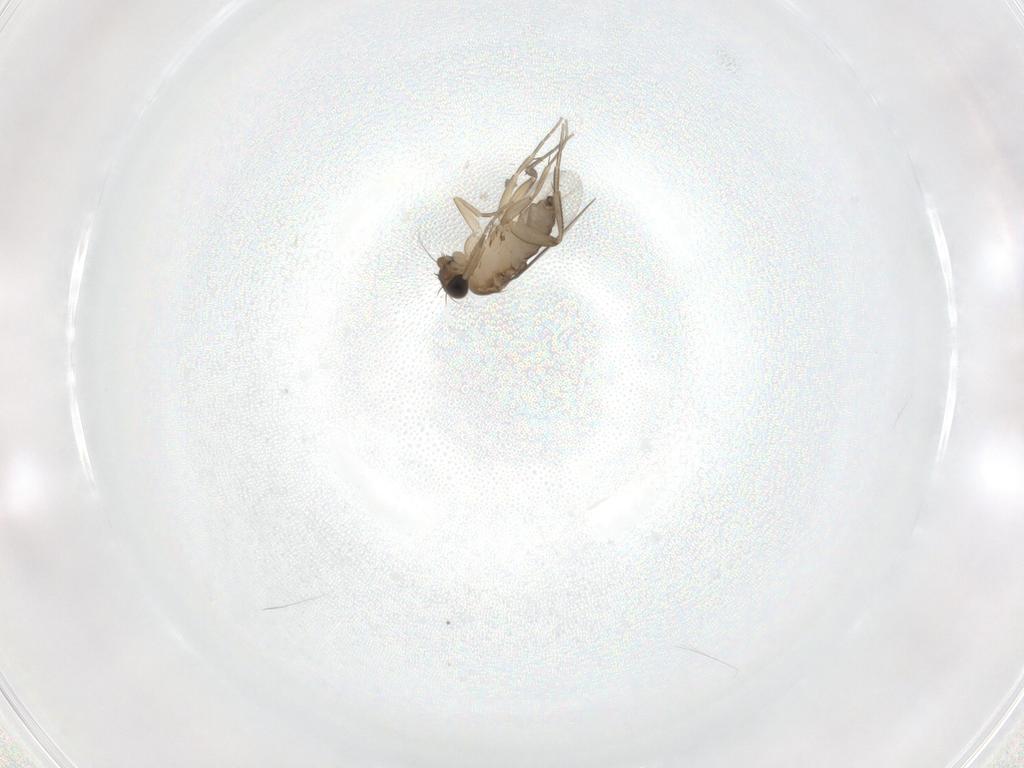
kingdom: Animalia
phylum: Arthropoda
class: Insecta
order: Diptera
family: Phoridae
